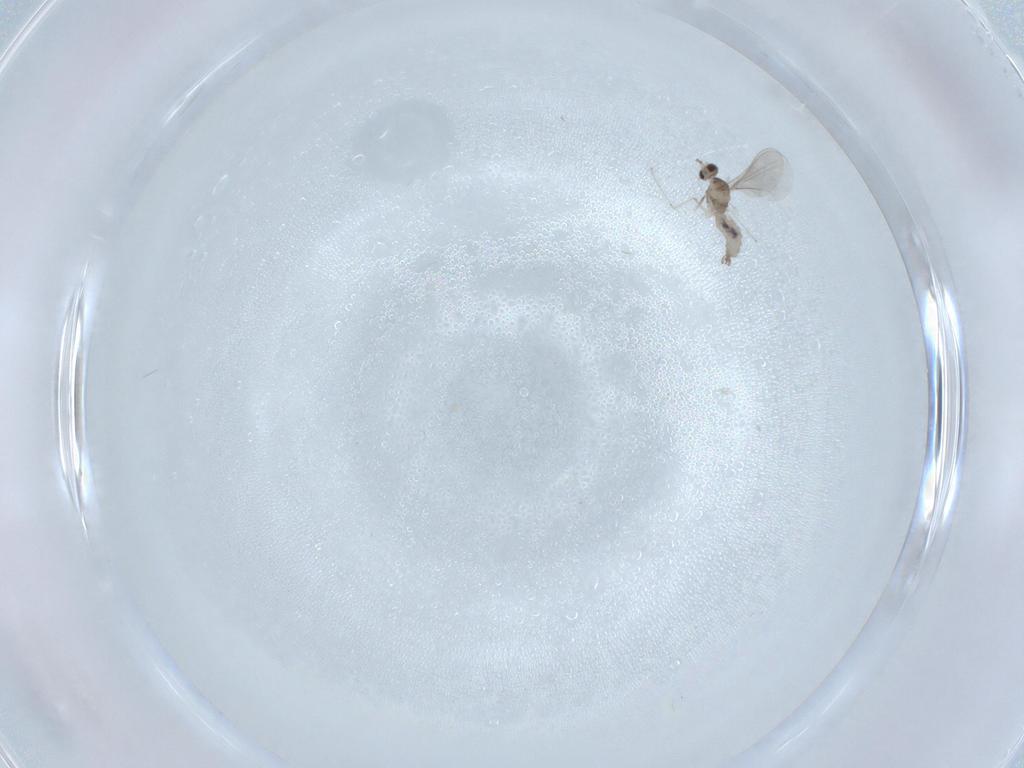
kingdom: Animalia
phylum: Arthropoda
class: Insecta
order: Diptera
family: Cecidomyiidae
